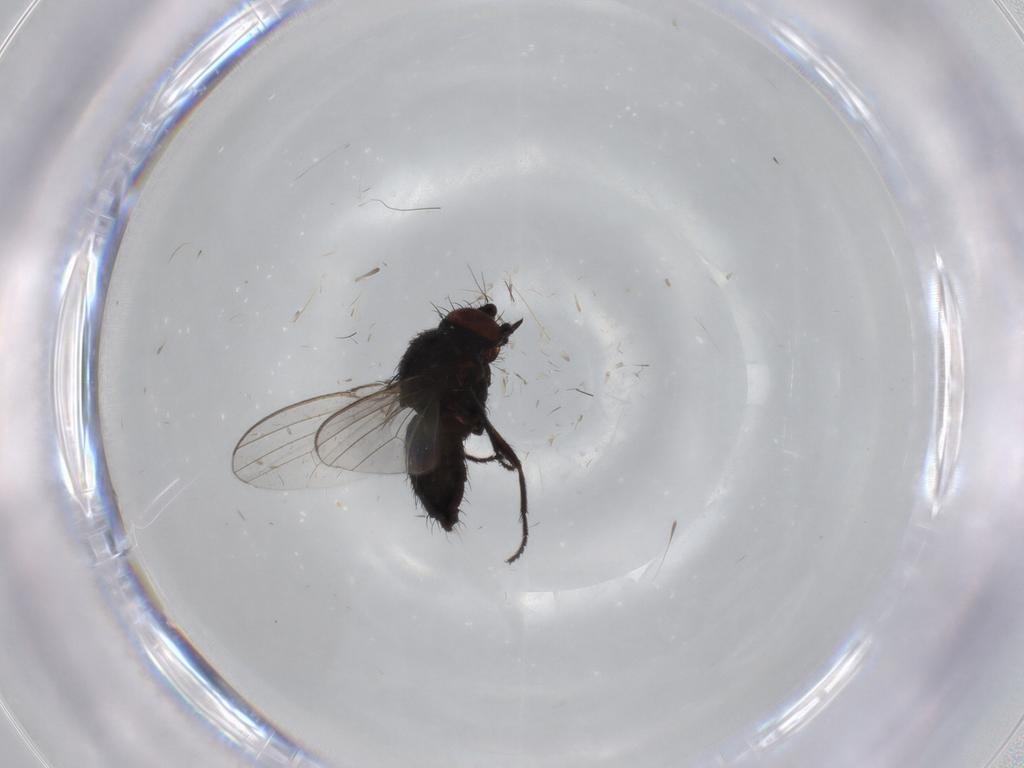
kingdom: Animalia
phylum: Arthropoda
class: Insecta
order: Diptera
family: Milichiidae
